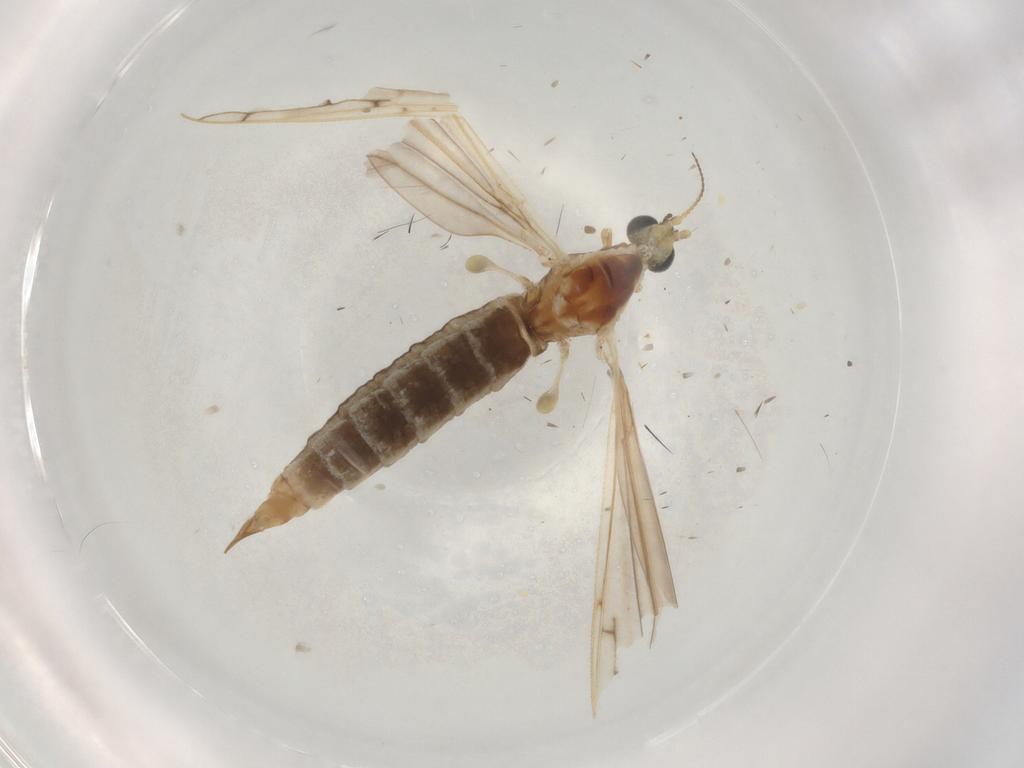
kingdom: Animalia
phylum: Arthropoda
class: Insecta
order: Diptera
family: Limoniidae
